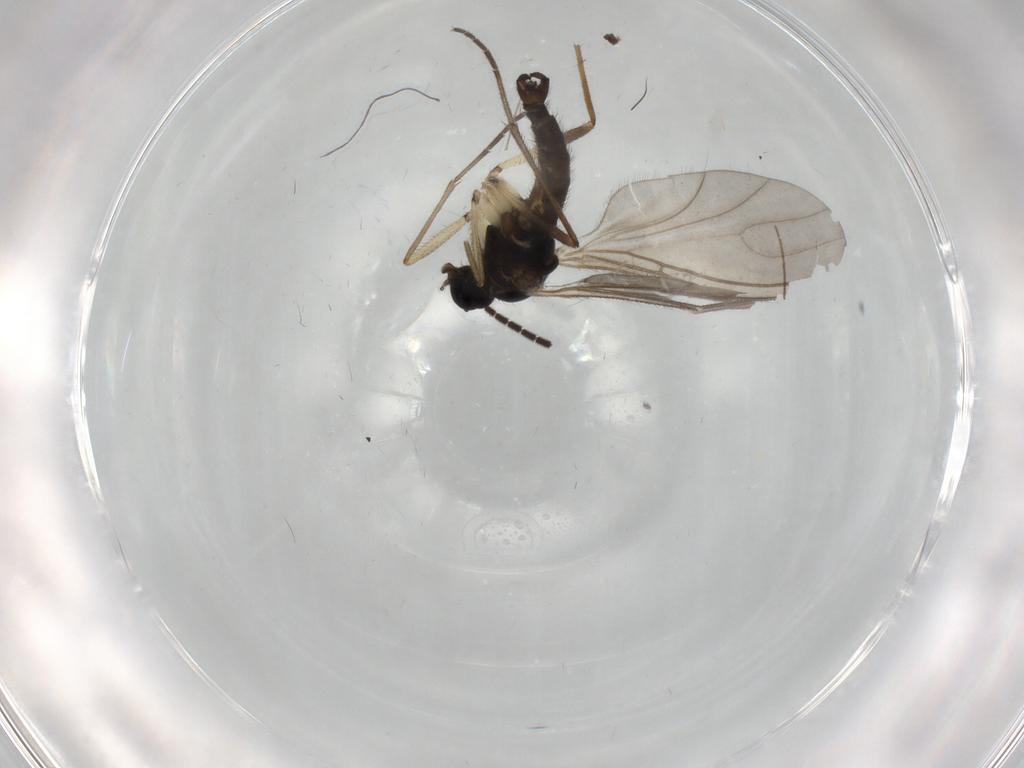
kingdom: Animalia
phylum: Arthropoda
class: Insecta
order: Diptera
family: Sciaridae
